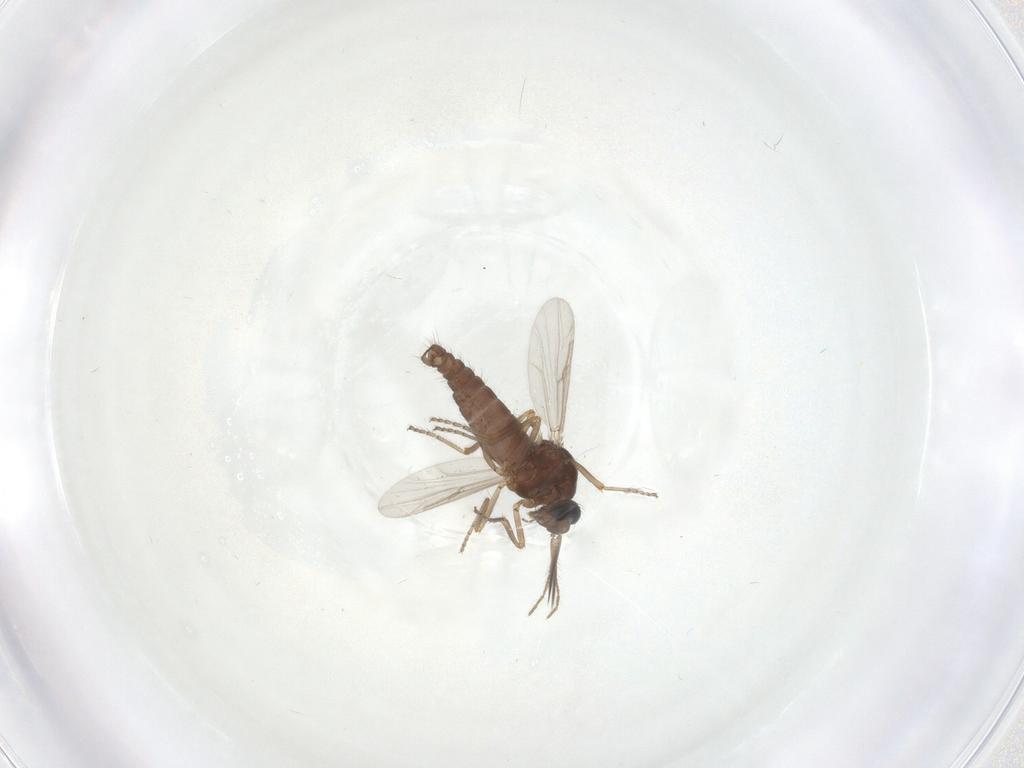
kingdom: Animalia
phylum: Arthropoda
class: Insecta
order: Diptera
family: Ceratopogonidae
